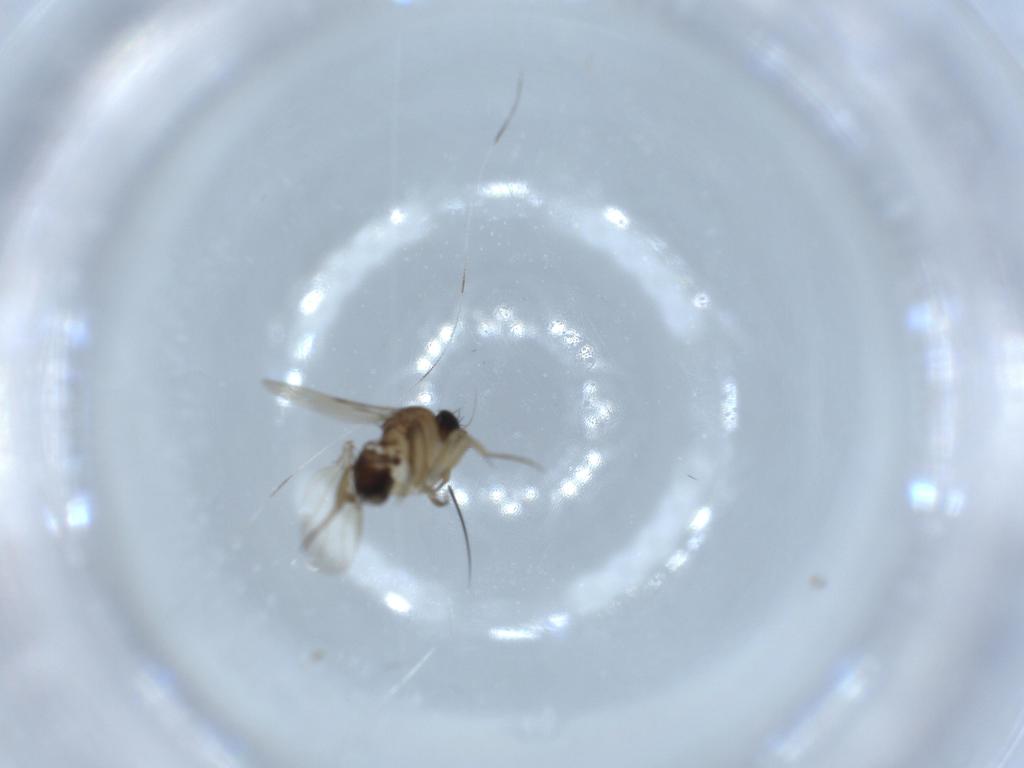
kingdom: Animalia
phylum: Arthropoda
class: Insecta
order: Diptera
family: Phoridae
